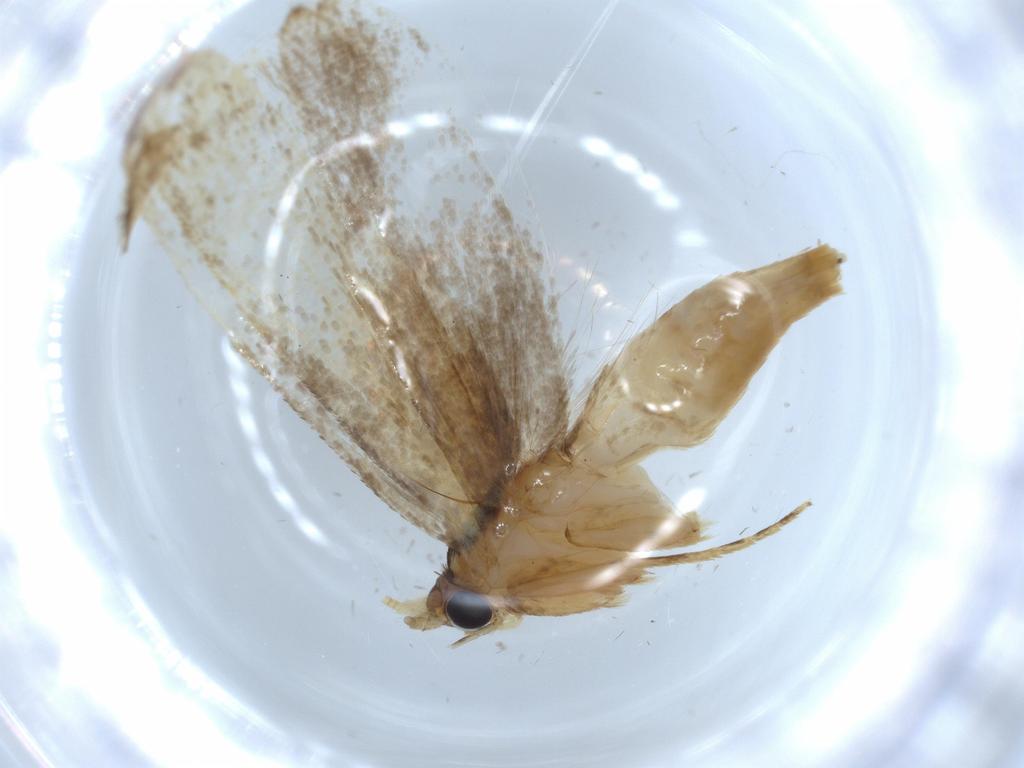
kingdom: Animalia
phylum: Arthropoda
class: Insecta
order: Lepidoptera
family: Tineidae
